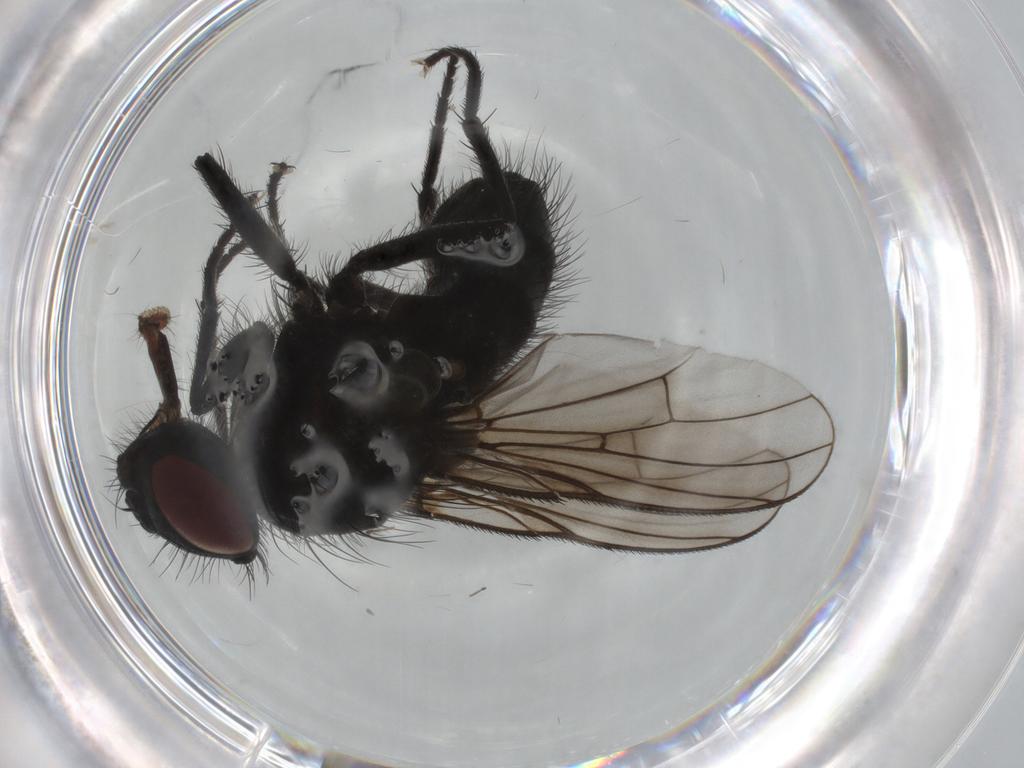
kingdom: Animalia
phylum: Arthropoda
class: Insecta
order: Diptera
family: Muscidae
